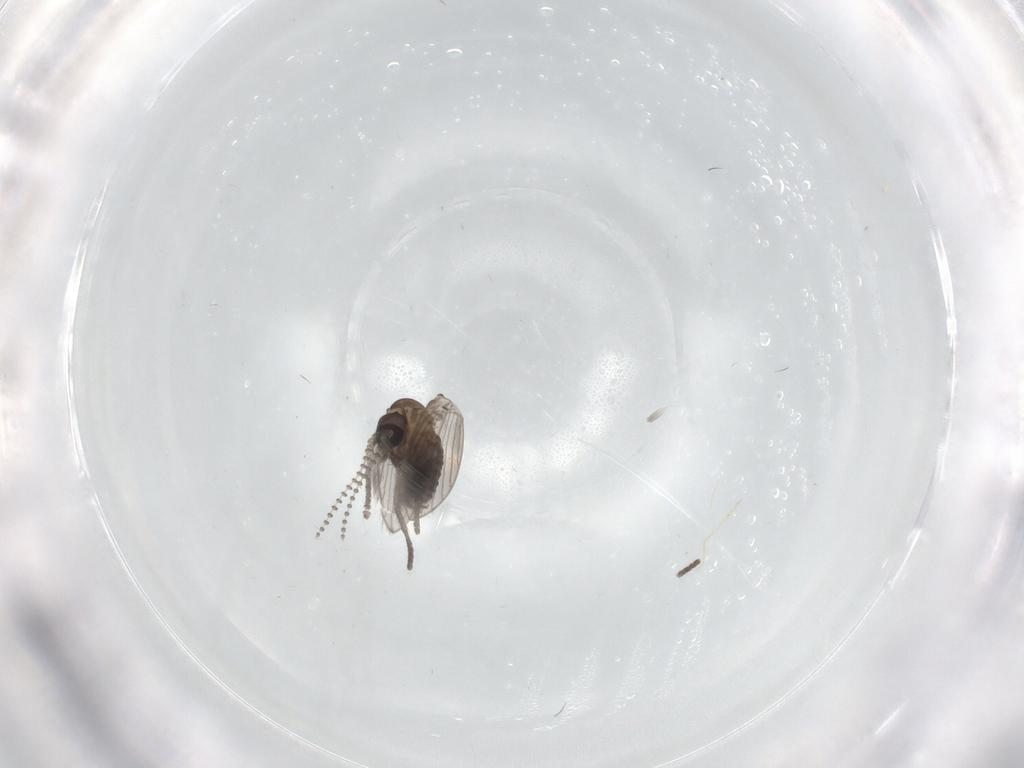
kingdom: Animalia
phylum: Arthropoda
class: Insecta
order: Diptera
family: Psychodidae
